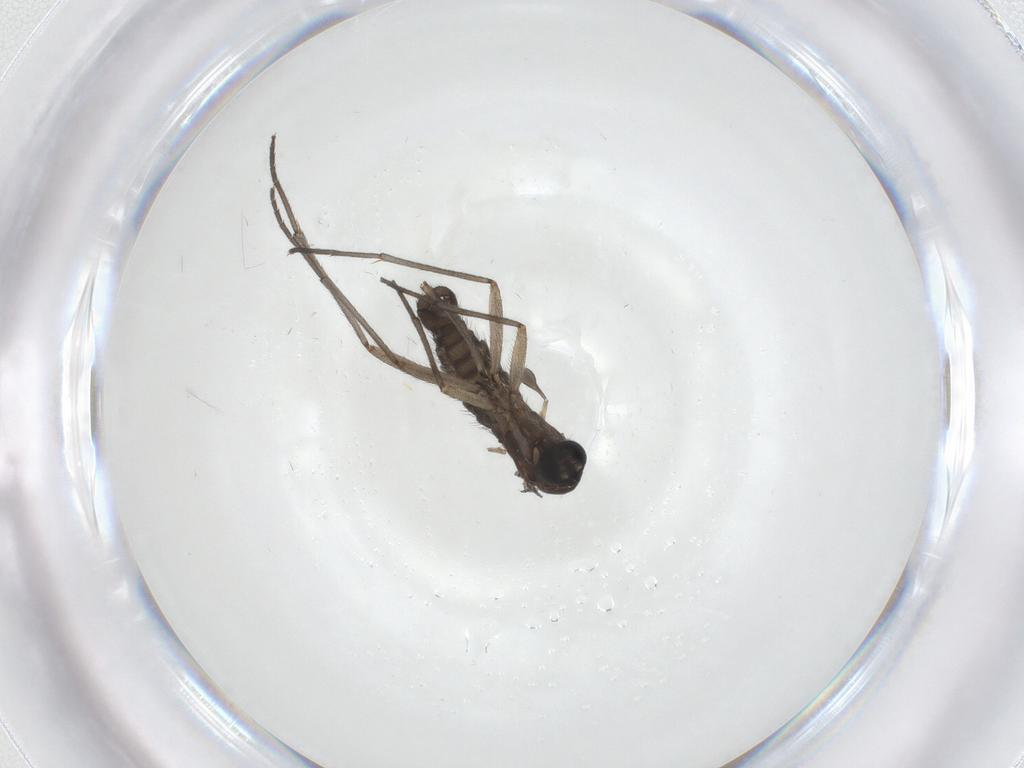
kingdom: Animalia
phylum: Arthropoda
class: Insecta
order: Diptera
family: Sciaridae
